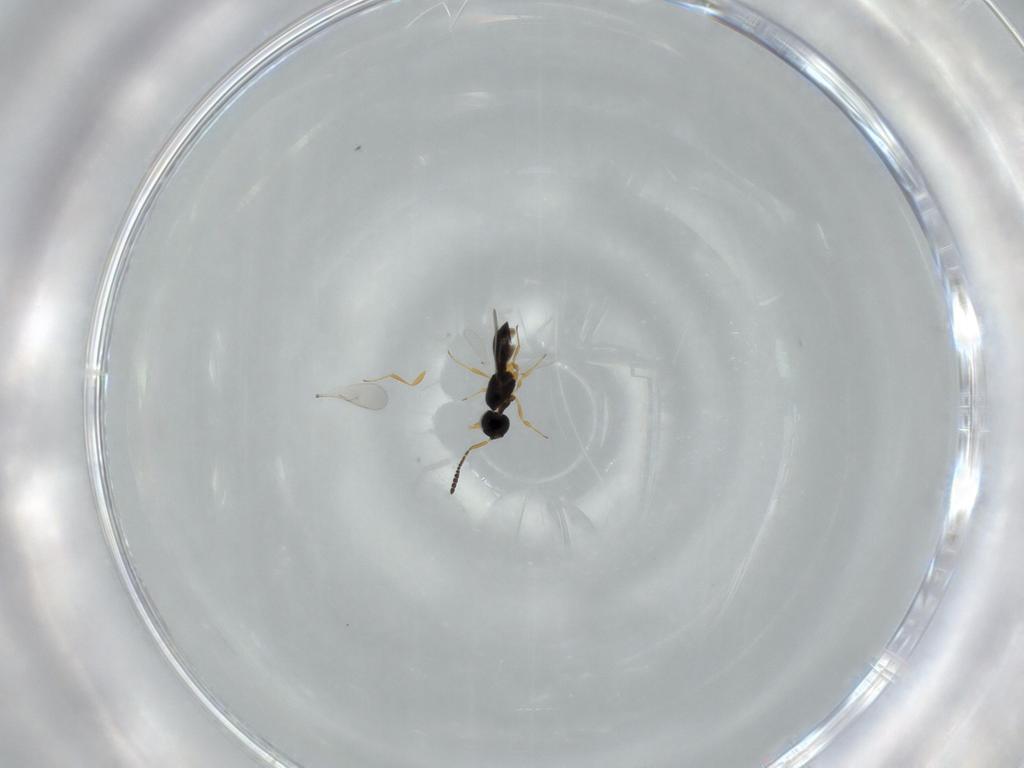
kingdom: Animalia
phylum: Arthropoda
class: Insecta
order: Hymenoptera
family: Scelionidae
